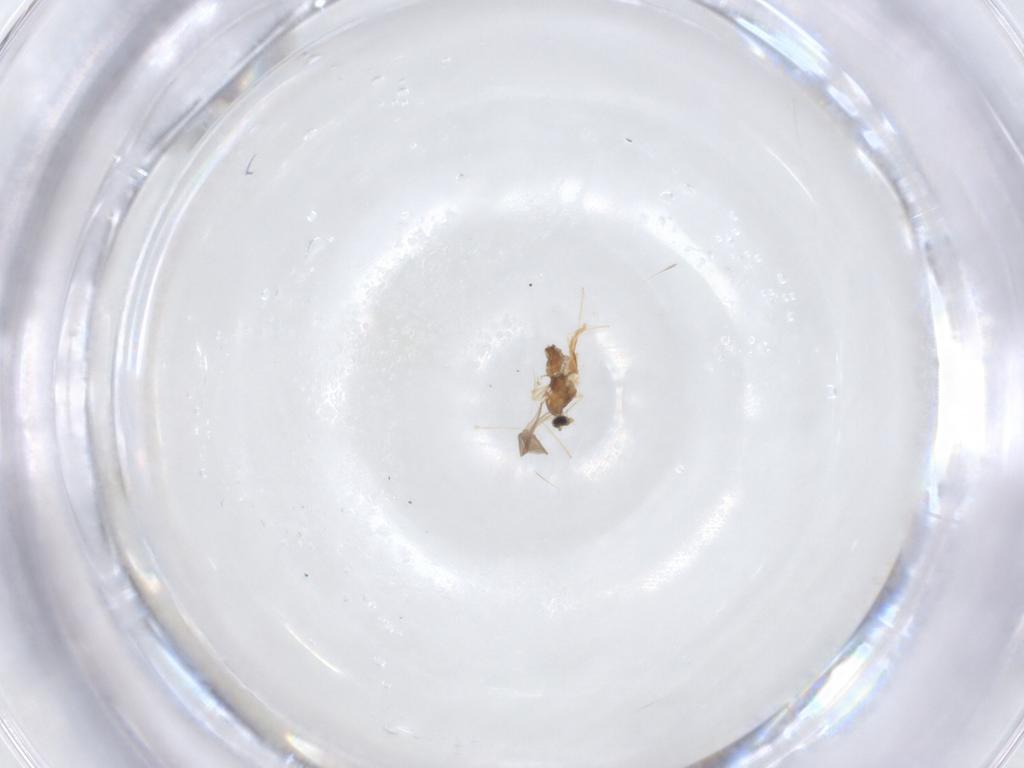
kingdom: Animalia
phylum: Arthropoda
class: Insecta
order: Diptera
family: Cecidomyiidae
